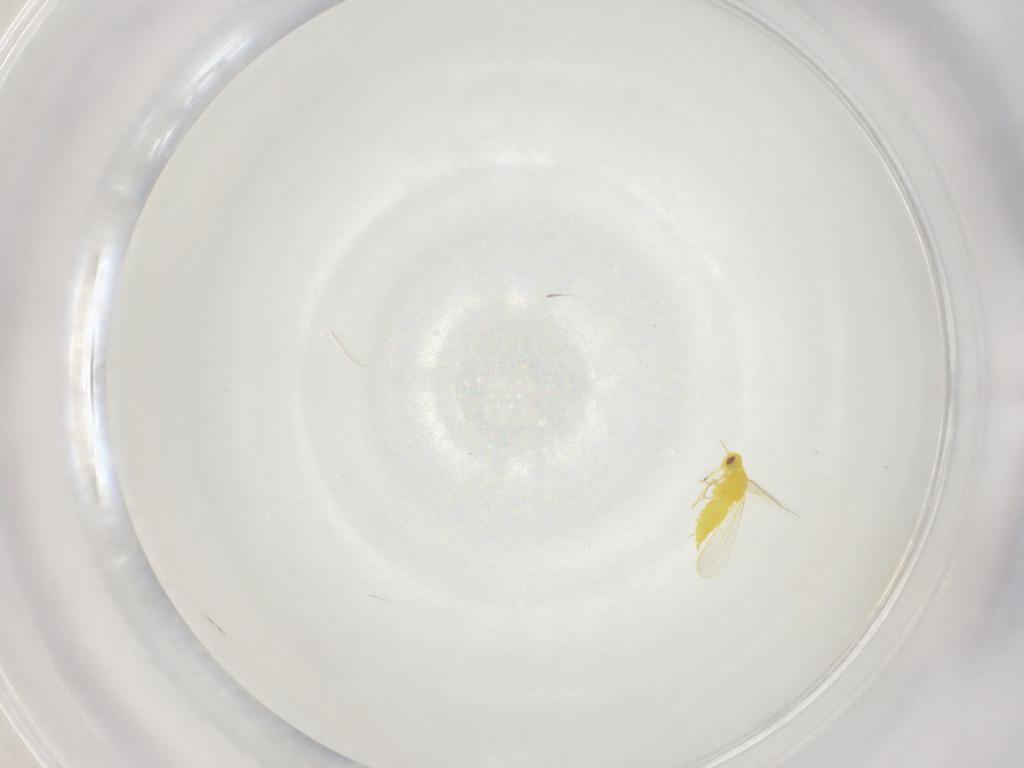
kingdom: Animalia
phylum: Arthropoda
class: Insecta
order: Hemiptera
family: Aleyrodidae
